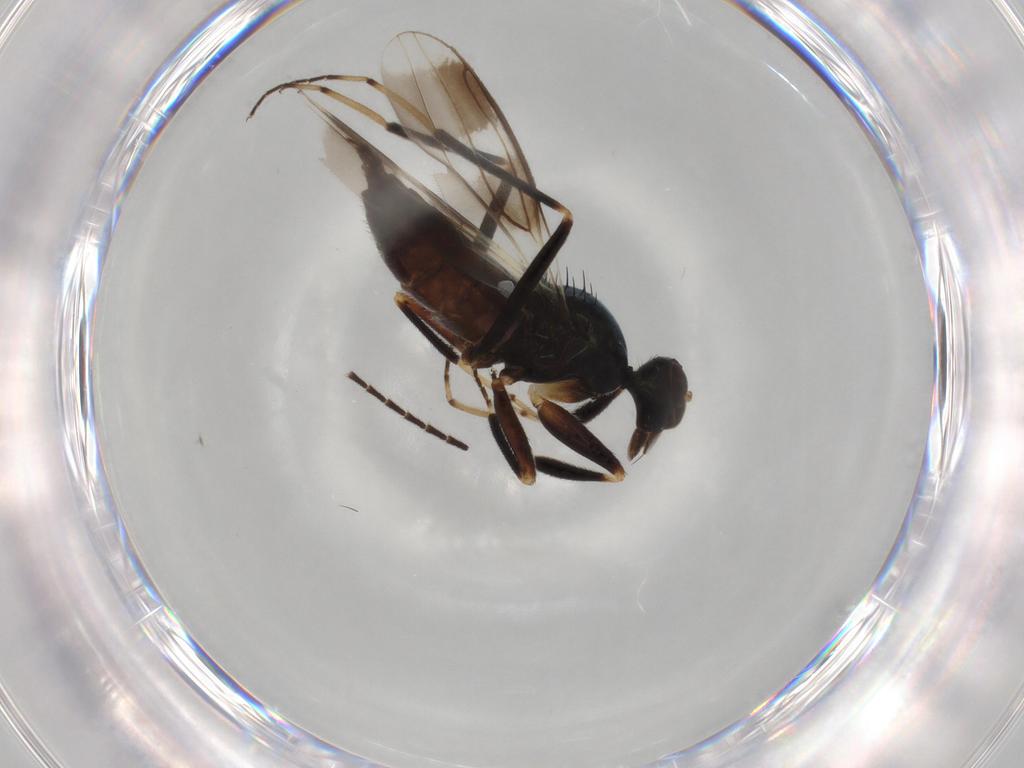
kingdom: Animalia
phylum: Arthropoda
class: Insecta
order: Diptera
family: Hybotidae
